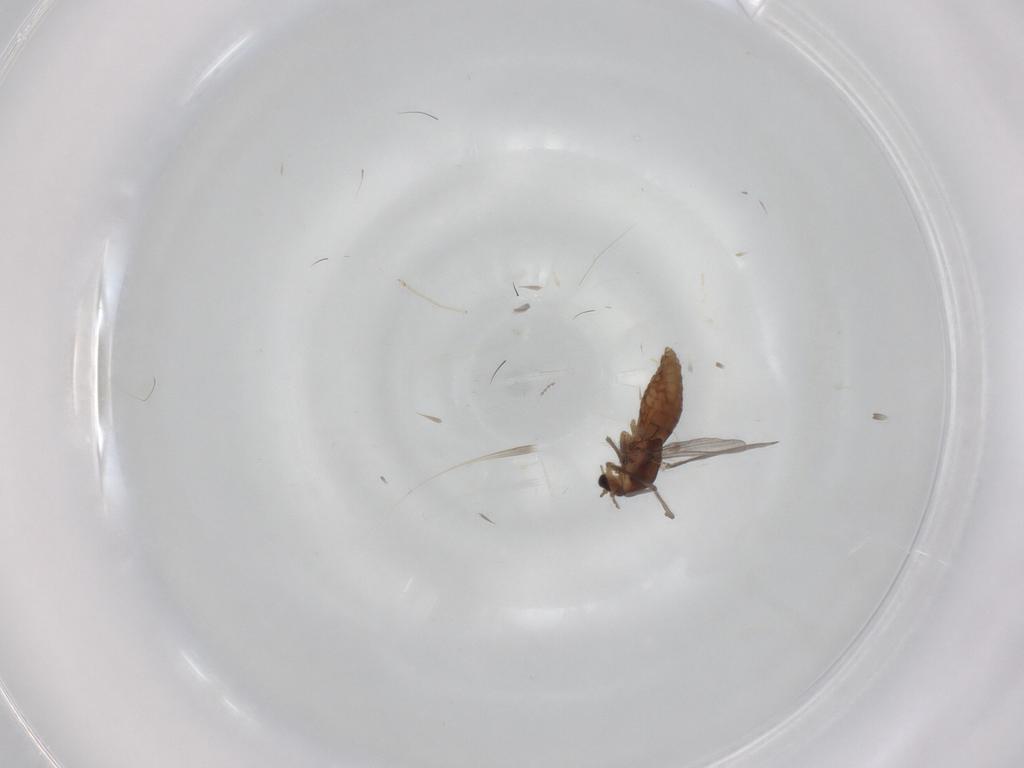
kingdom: Animalia
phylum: Arthropoda
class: Insecta
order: Diptera
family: Chironomidae
